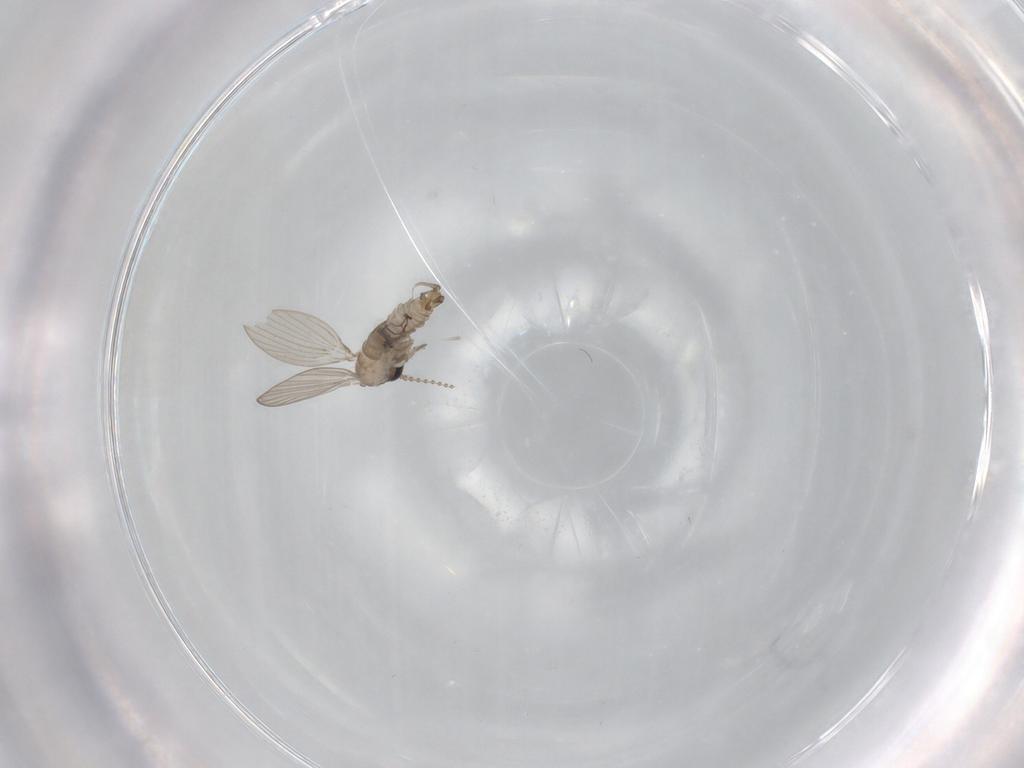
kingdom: Animalia
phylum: Arthropoda
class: Insecta
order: Diptera
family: Psychodidae
